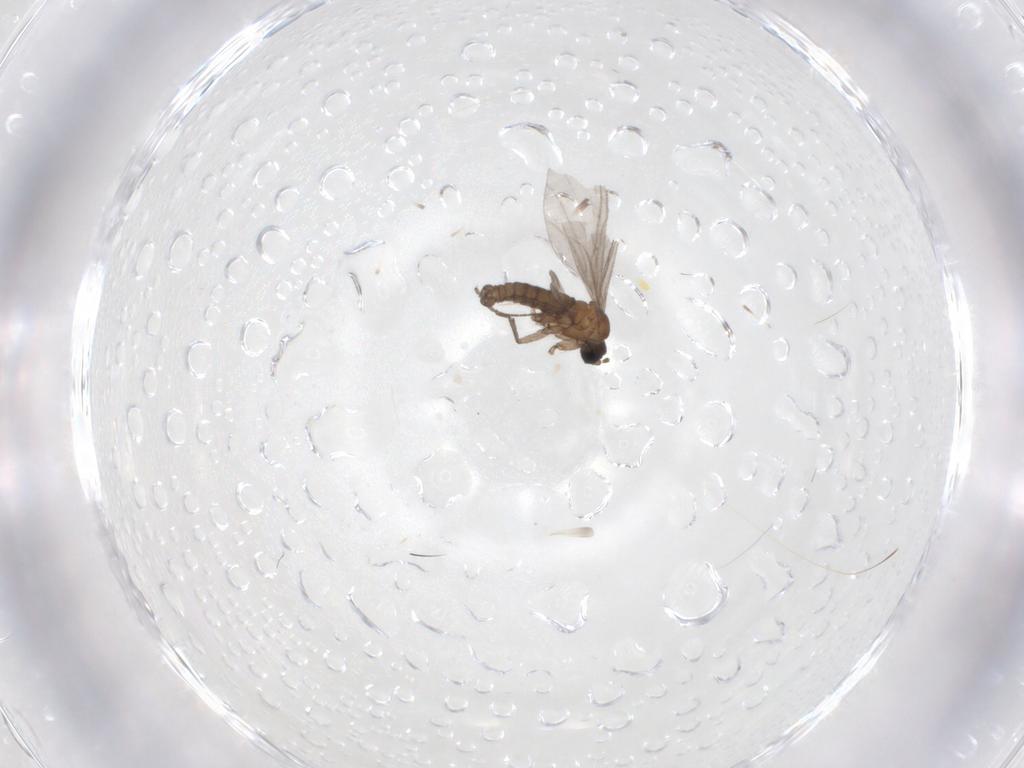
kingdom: Animalia
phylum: Arthropoda
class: Insecta
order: Diptera
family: Sciaridae
